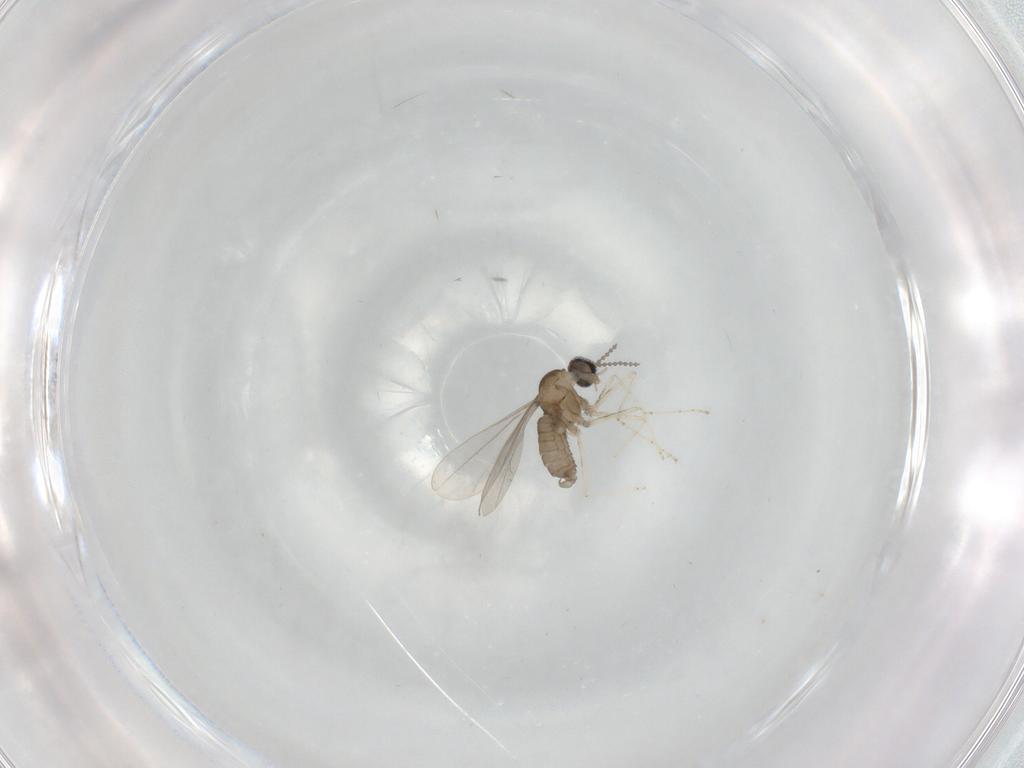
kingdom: Animalia
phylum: Arthropoda
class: Insecta
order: Diptera
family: Cecidomyiidae
